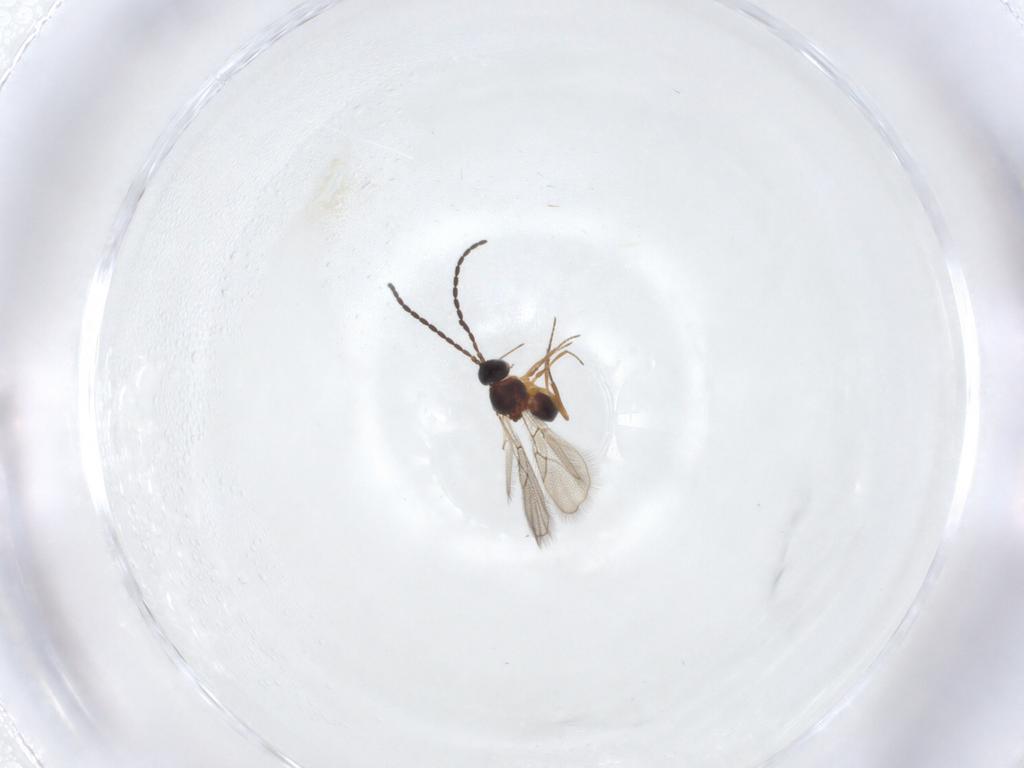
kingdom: Animalia
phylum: Arthropoda
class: Insecta
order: Hymenoptera
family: Figitidae
